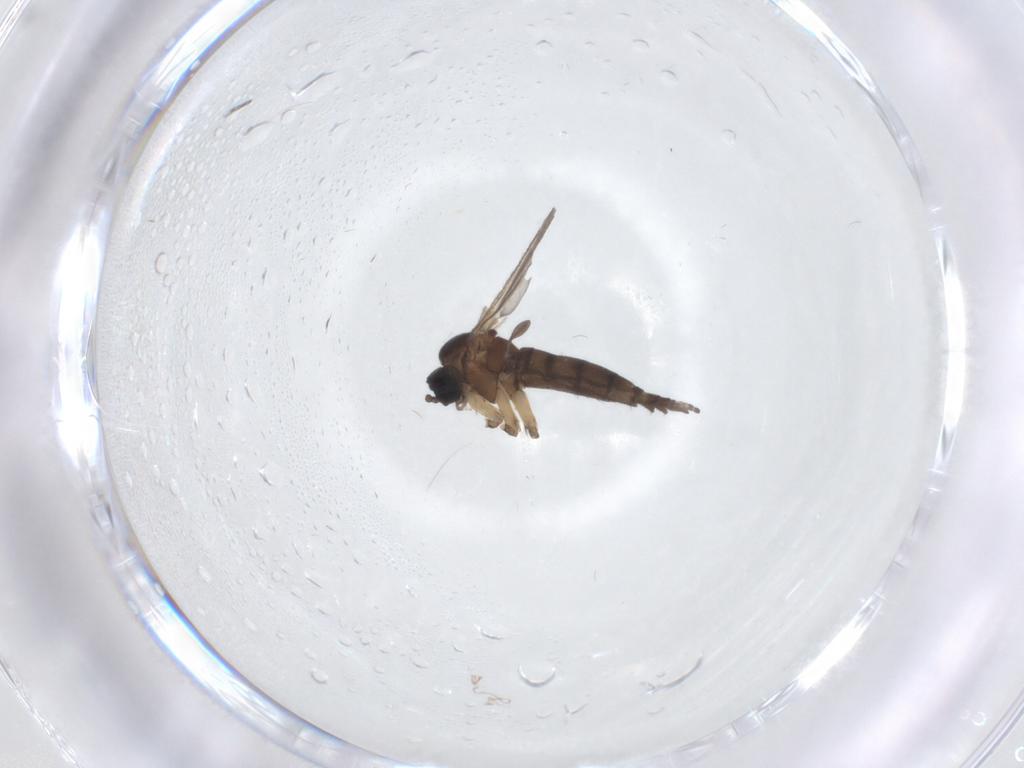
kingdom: Animalia
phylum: Arthropoda
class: Insecta
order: Diptera
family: Sciaridae
